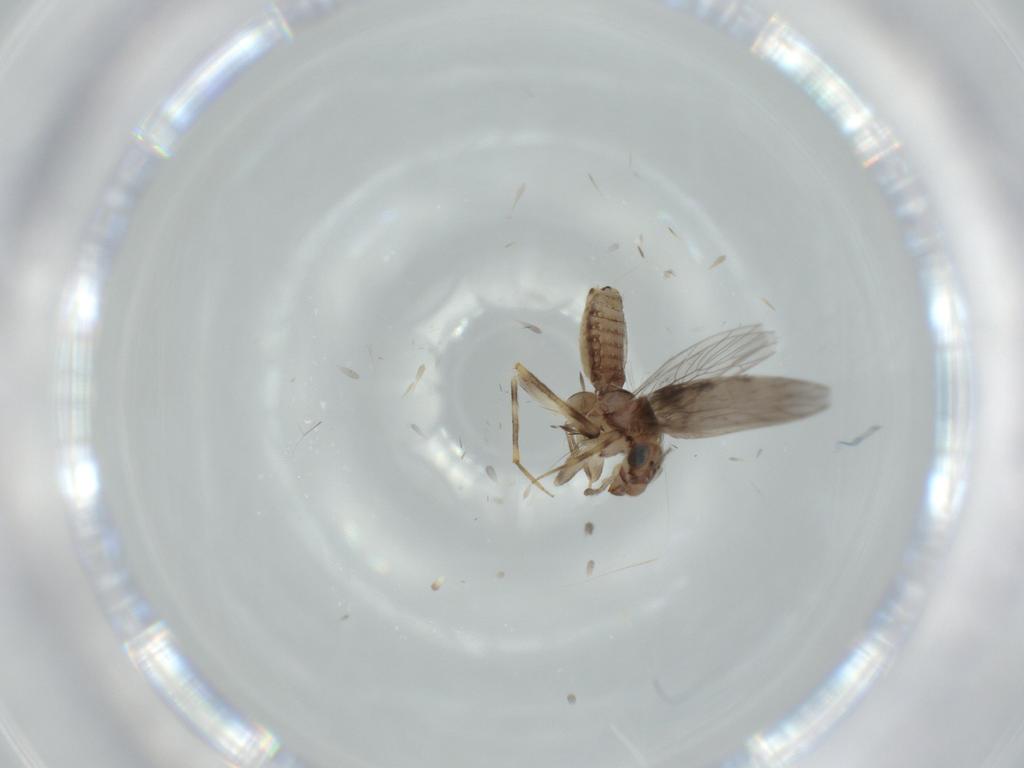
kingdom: Animalia
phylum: Arthropoda
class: Insecta
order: Psocodea
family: Lepidopsocidae
